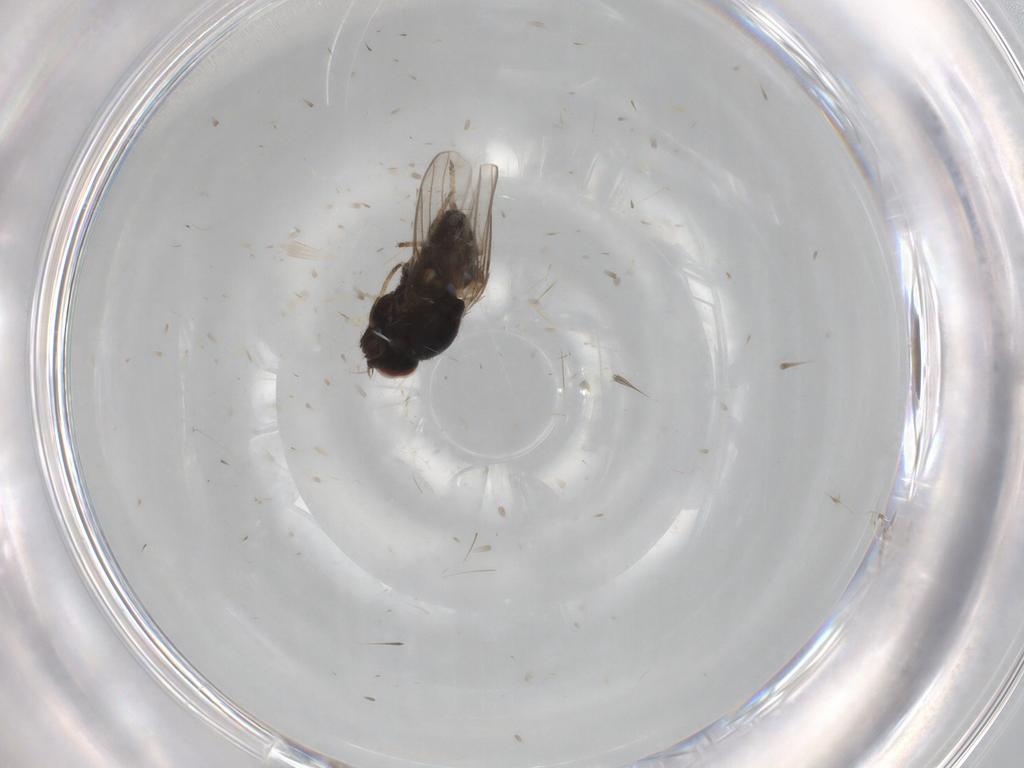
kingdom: Animalia
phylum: Arthropoda
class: Insecta
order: Diptera
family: Chloropidae
